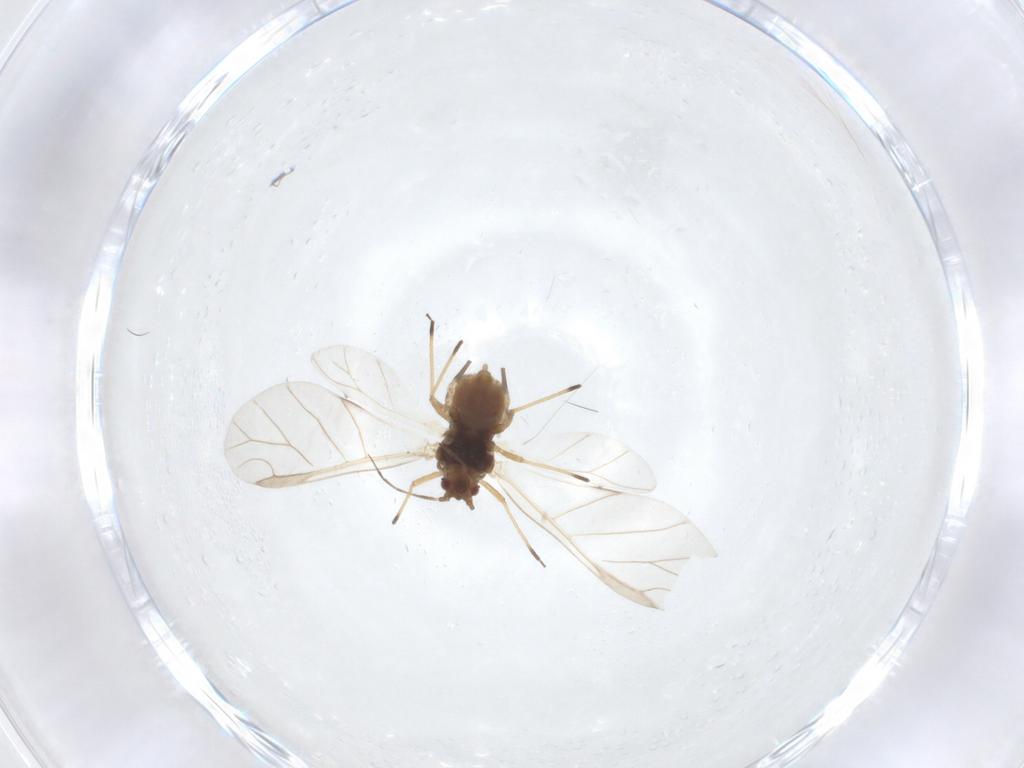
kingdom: Animalia
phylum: Arthropoda
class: Insecta
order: Hemiptera
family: Aphididae
